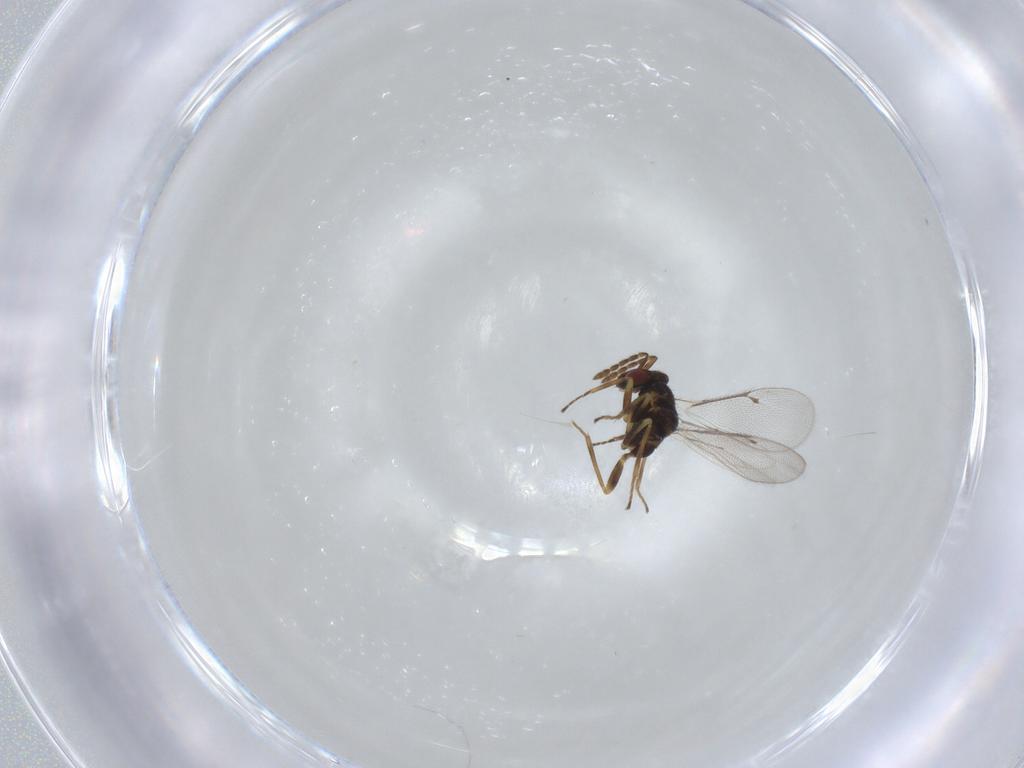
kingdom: Animalia
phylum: Arthropoda
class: Insecta
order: Hymenoptera
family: Eulophidae
